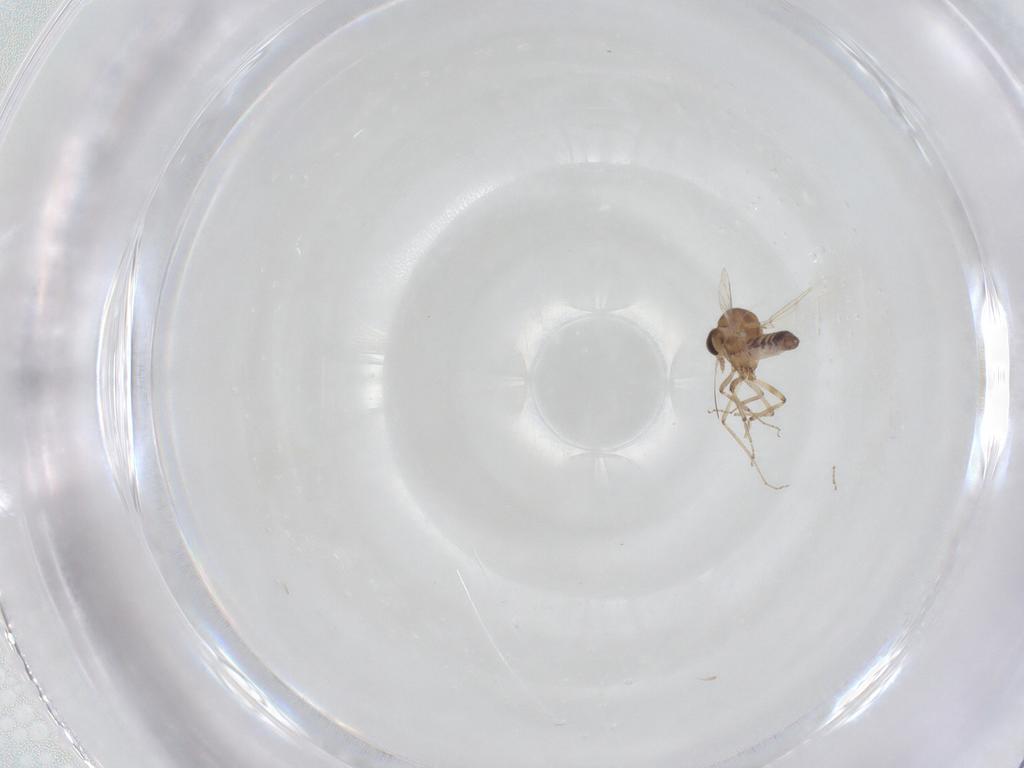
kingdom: Animalia
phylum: Arthropoda
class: Insecta
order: Diptera
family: Ceratopogonidae
